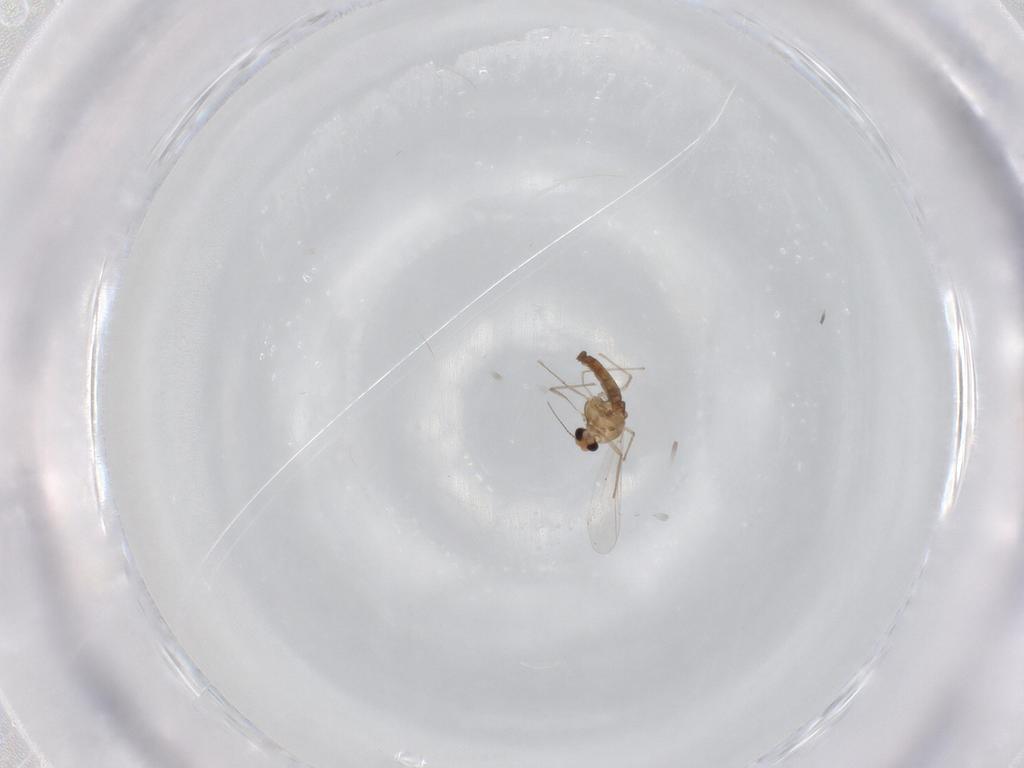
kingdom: Animalia
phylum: Arthropoda
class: Insecta
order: Diptera
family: Chironomidae
